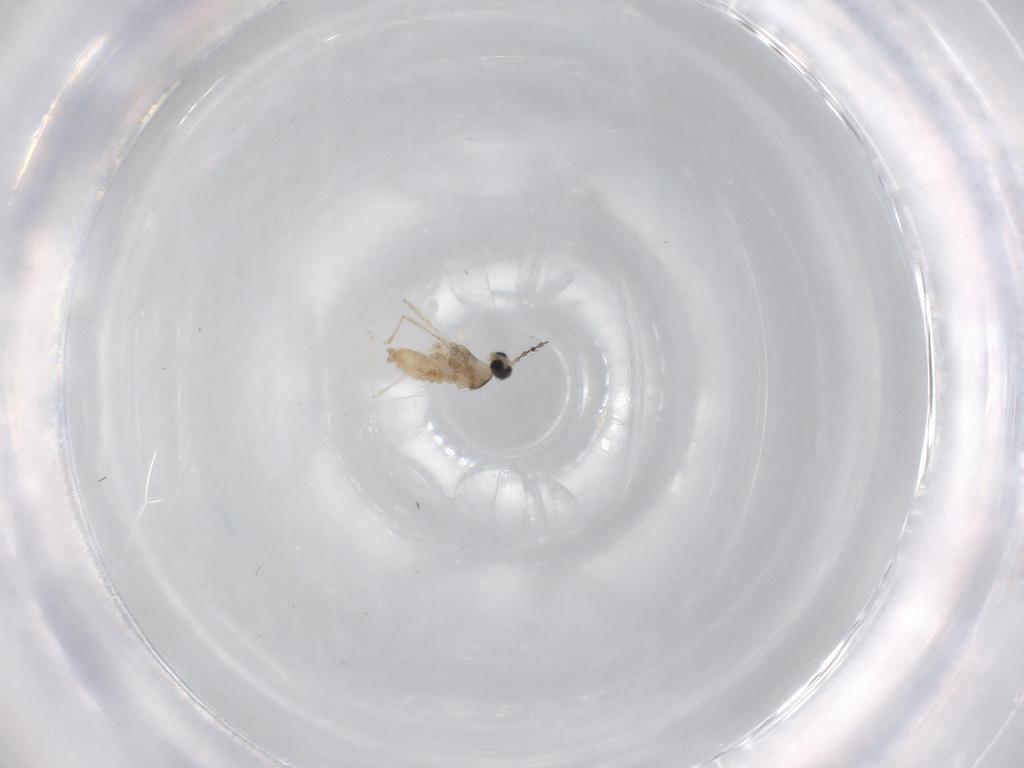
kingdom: Animalia
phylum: Arthropoda
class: Insecta
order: Diptera
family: Cecidomyiidae
